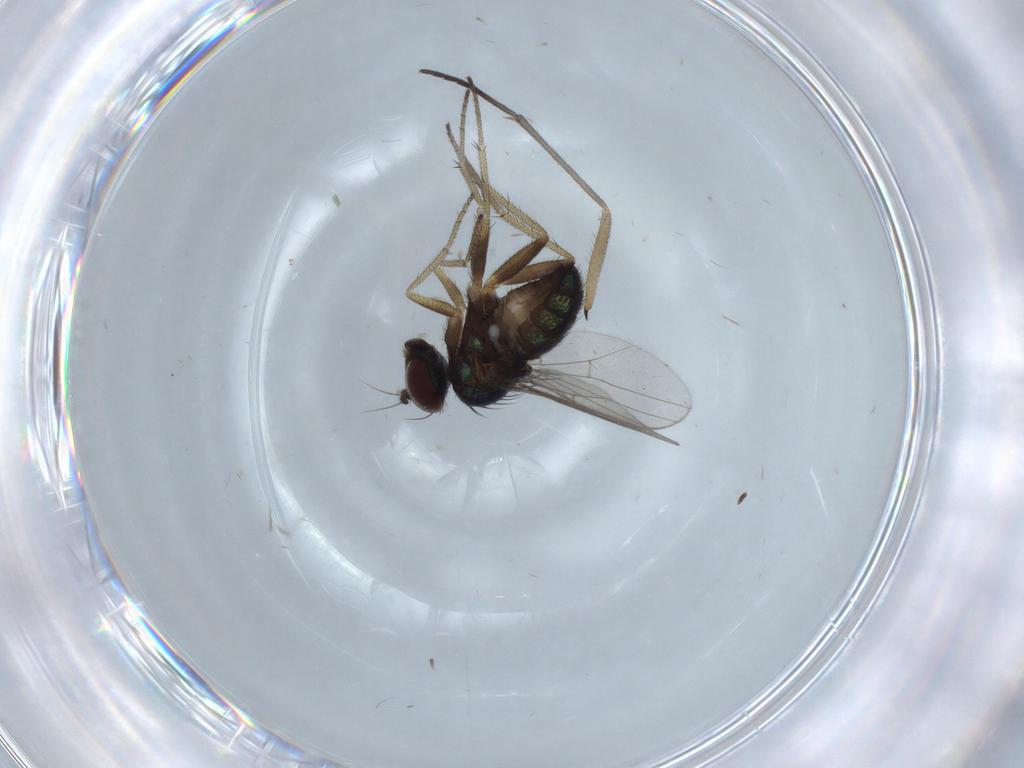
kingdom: Animalia
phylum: Arthropoda
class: Insecta
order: Diptera
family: Dolichopodidae
